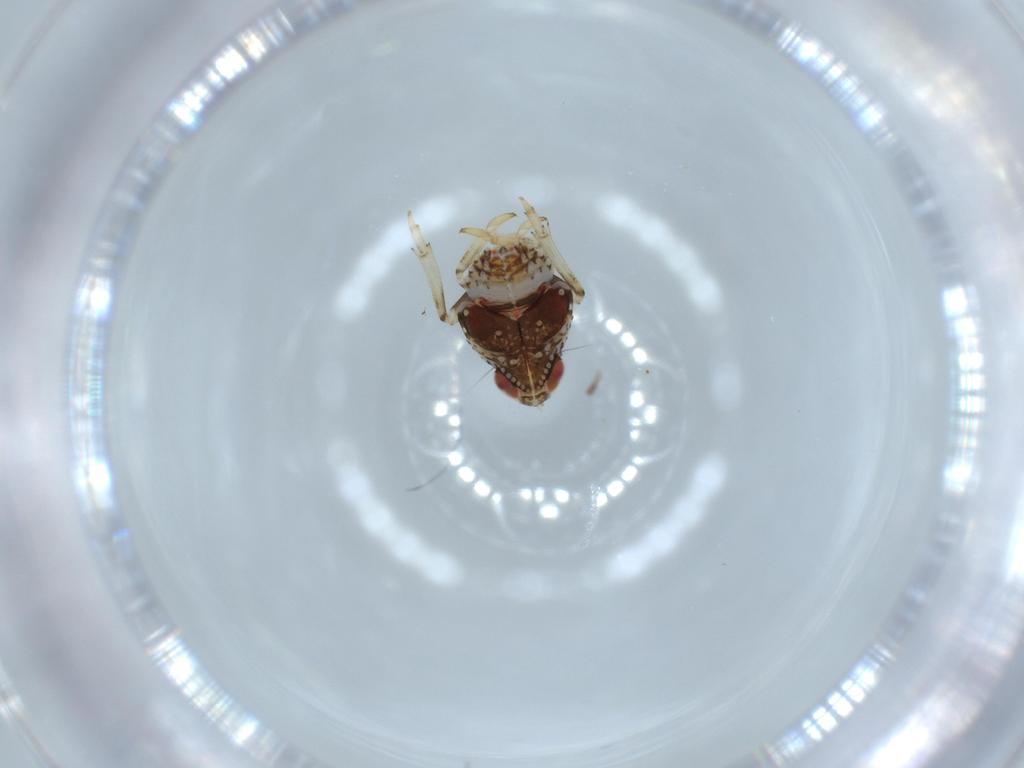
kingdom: Animalia
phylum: Arthropoda
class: Insecta
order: Hemiptera
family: Issidae
